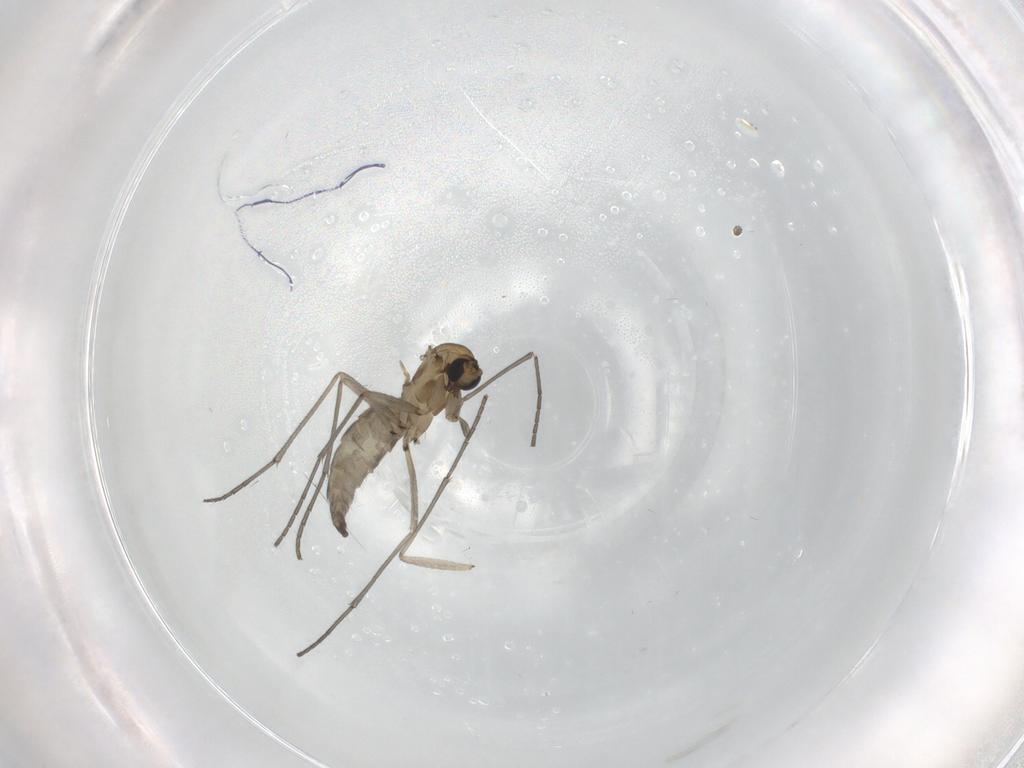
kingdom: Animalia
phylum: Arthropoda
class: Insecta
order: Diptera
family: Sciaridae
